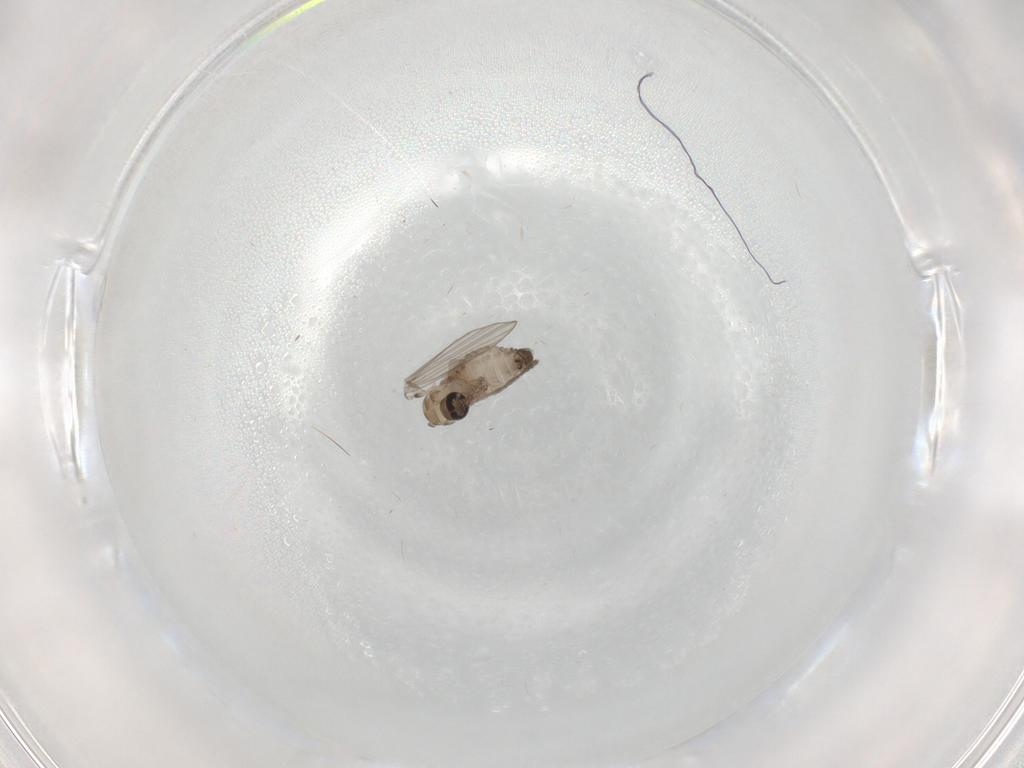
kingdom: Animalia
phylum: Arthropoda
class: Insecta
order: Diptera
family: Psychodidae
